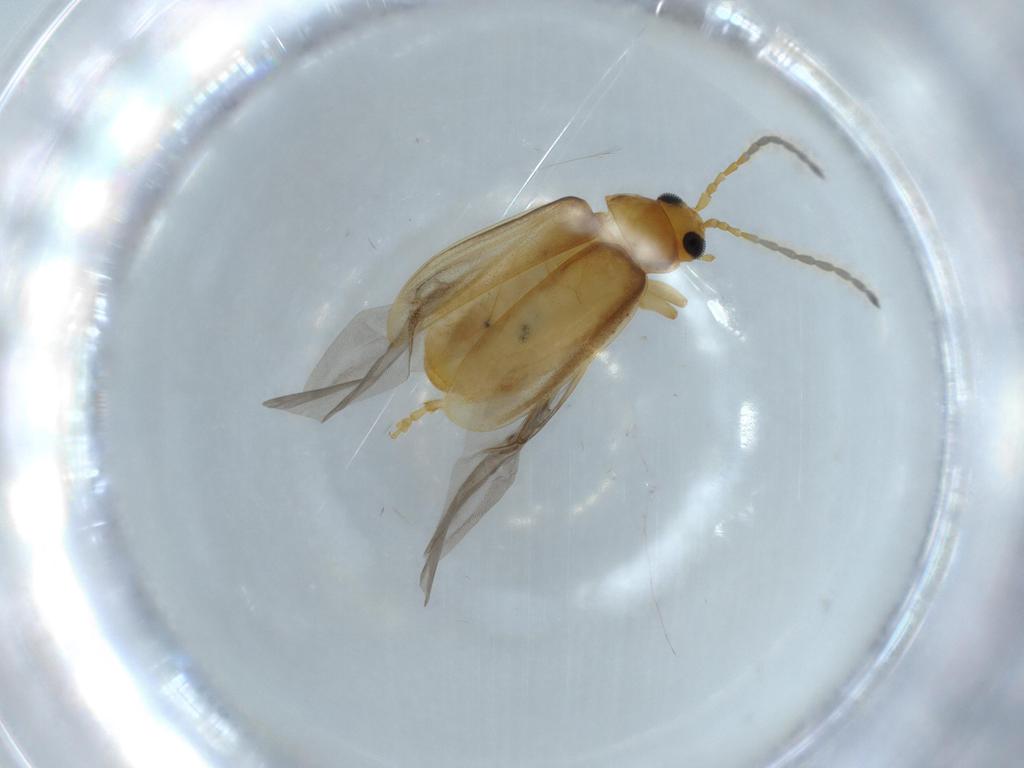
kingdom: Animalia
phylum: Arthropoda
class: Insecta
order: Coleoptera
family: Chrysomelidae
